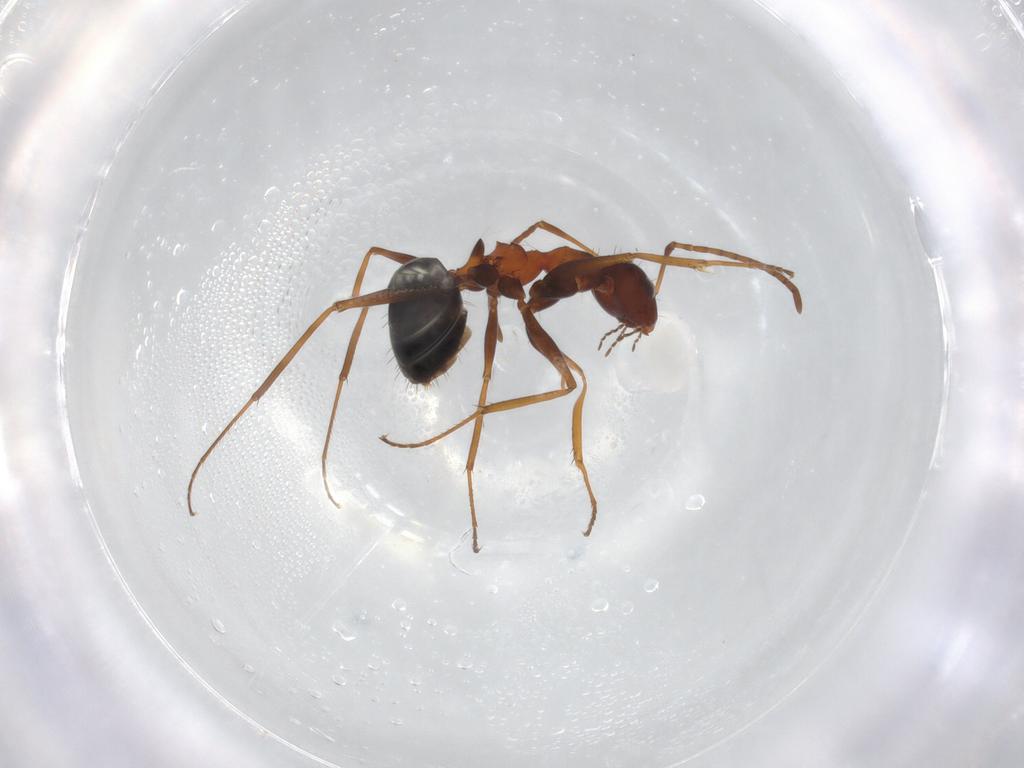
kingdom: Animalia
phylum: Arthropoda
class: Insecta
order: Hymenoptera
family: Formicidae
